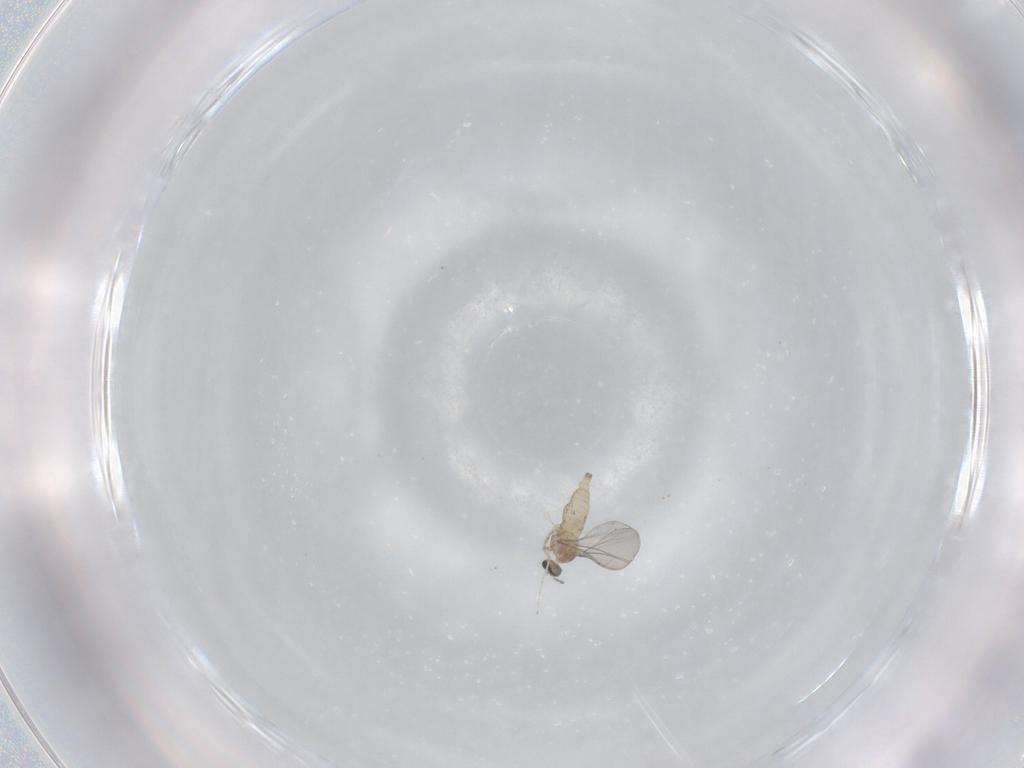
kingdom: Animalia
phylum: Arthropoda
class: Insecta
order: Diptera
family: Cecidomyiidae
